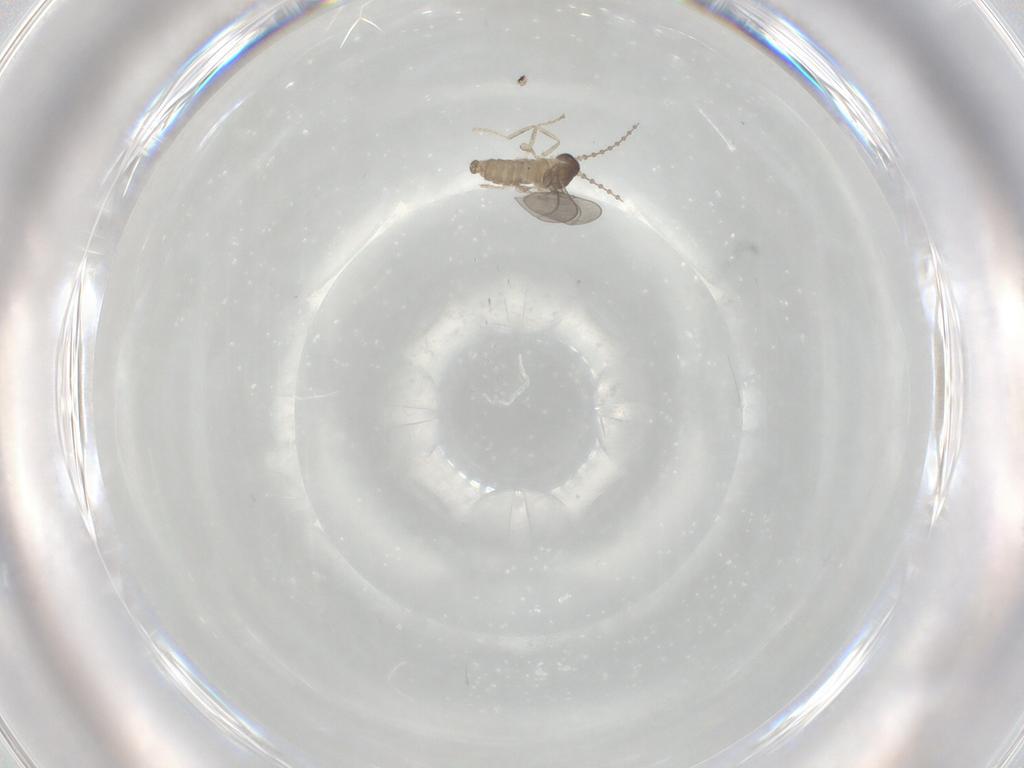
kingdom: Animalia
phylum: Arthropoda
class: Insecta
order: Diptera
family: Cecidomyiidae
